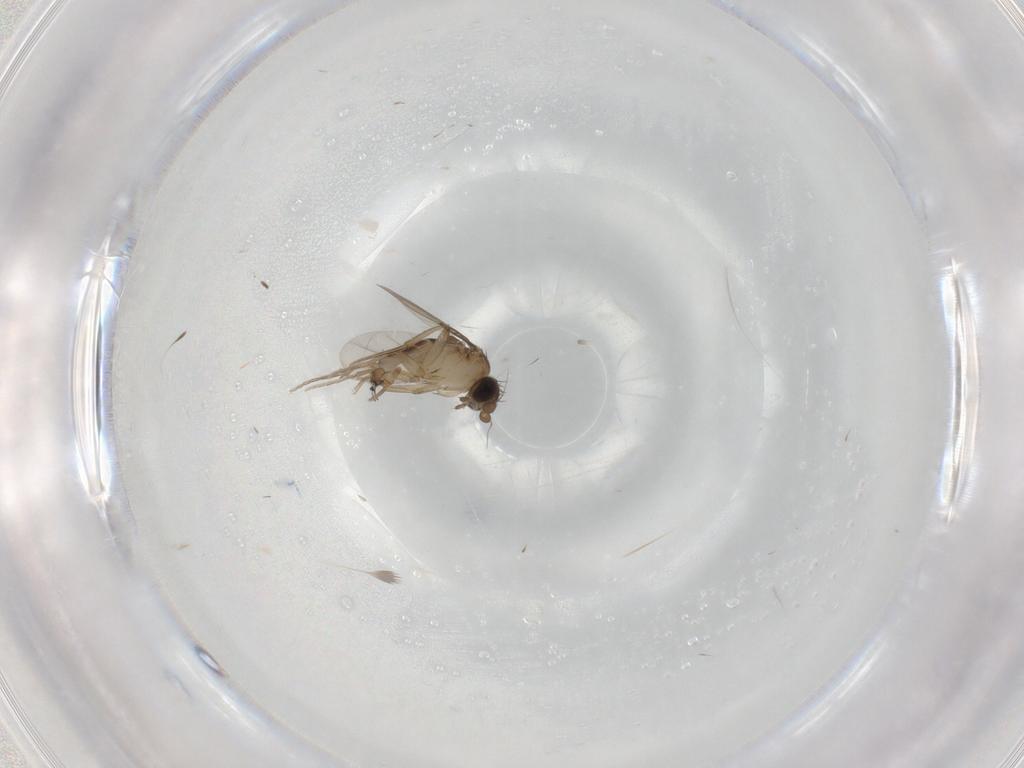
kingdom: Animalia
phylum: Arthropoda
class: Insecta
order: Diptera
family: Phoridae
